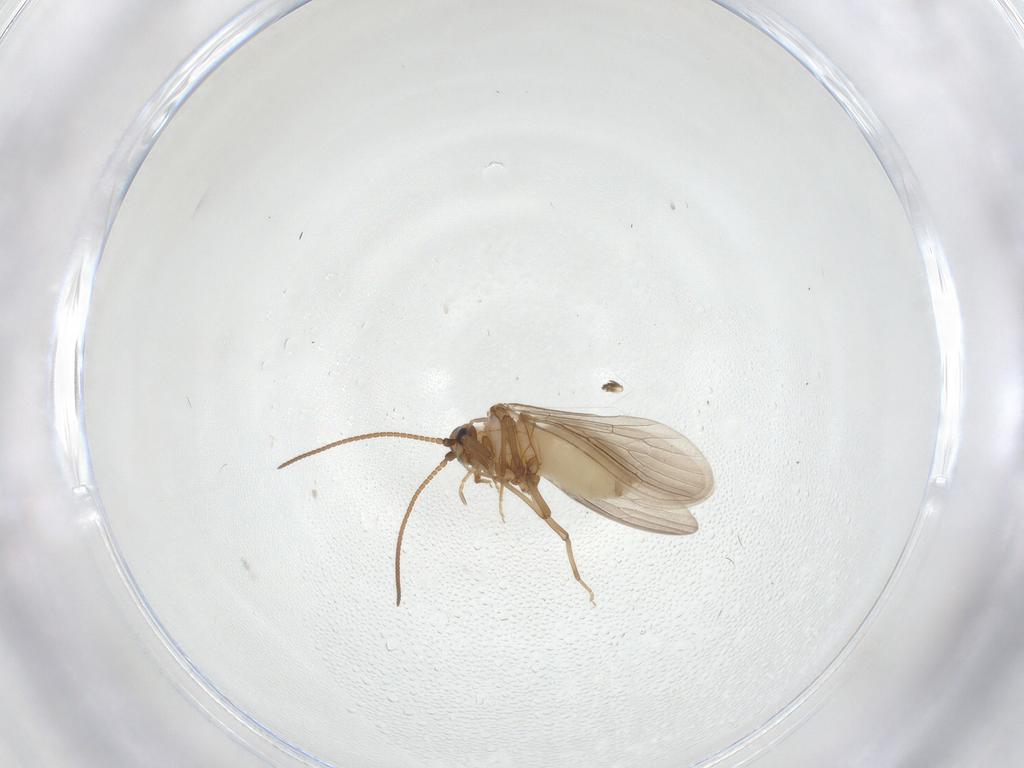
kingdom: Animalia
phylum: Arthropoda
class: Insecta
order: Neuroptera
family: Coniopterygidae
